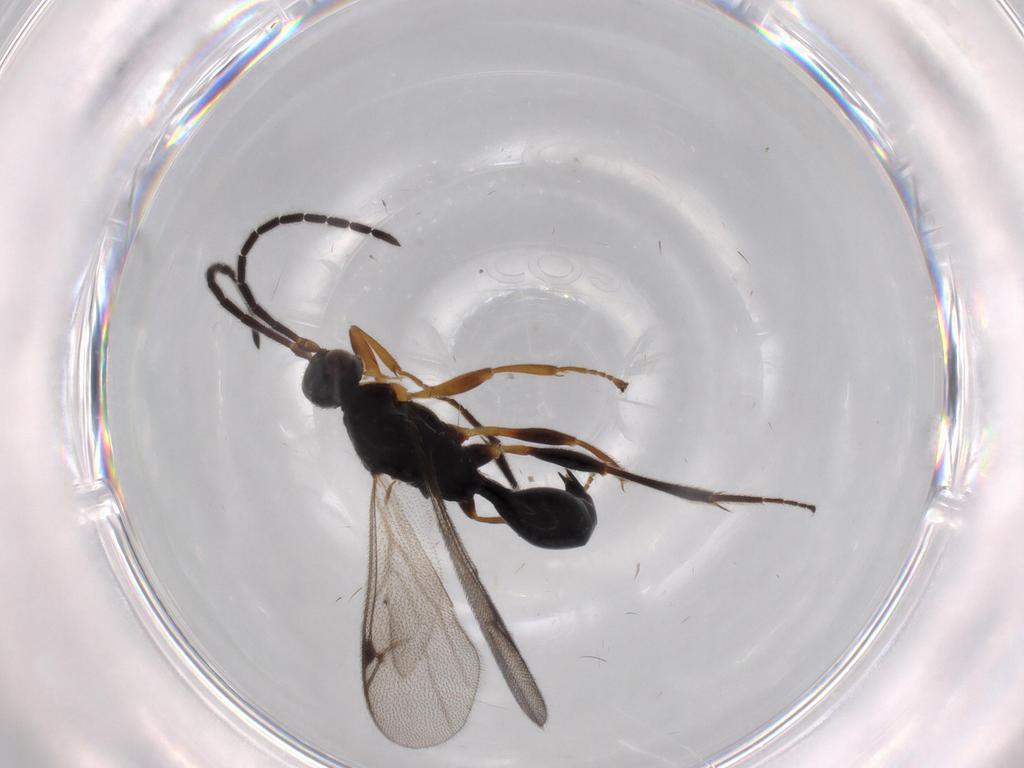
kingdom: Animalia
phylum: Arthropoda
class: Insecta
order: Hymenoptera
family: Proctotrupidae
